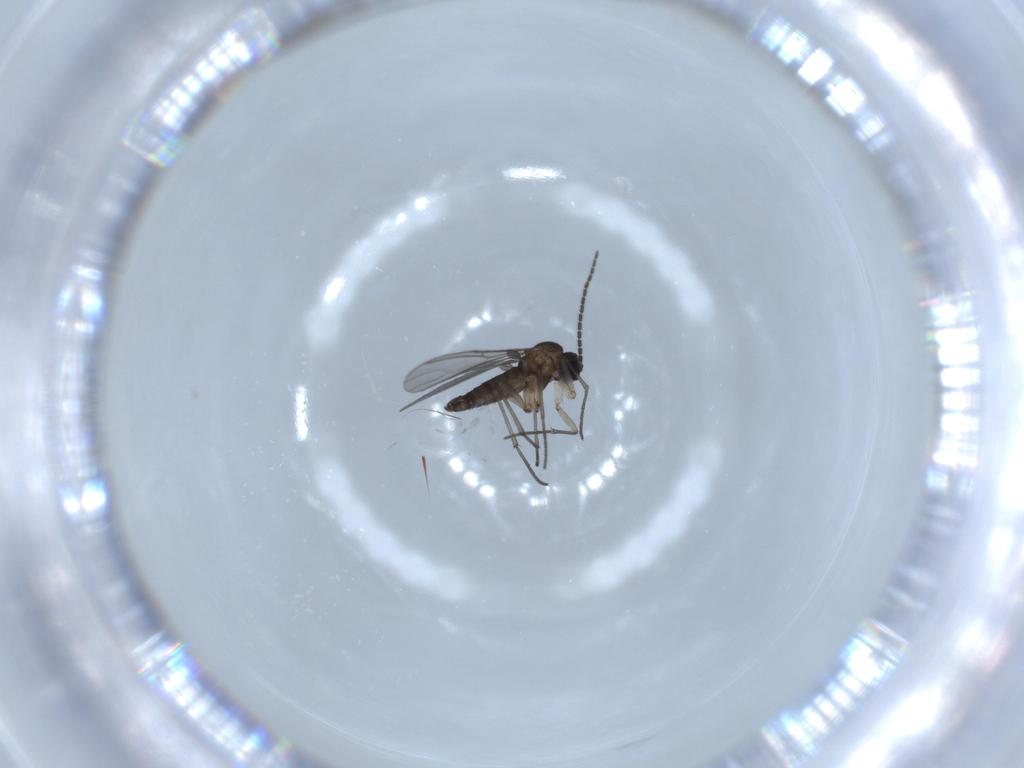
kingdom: Animalia
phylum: Arthropoda
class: Insecta
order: Diptera
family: Sciaridae
